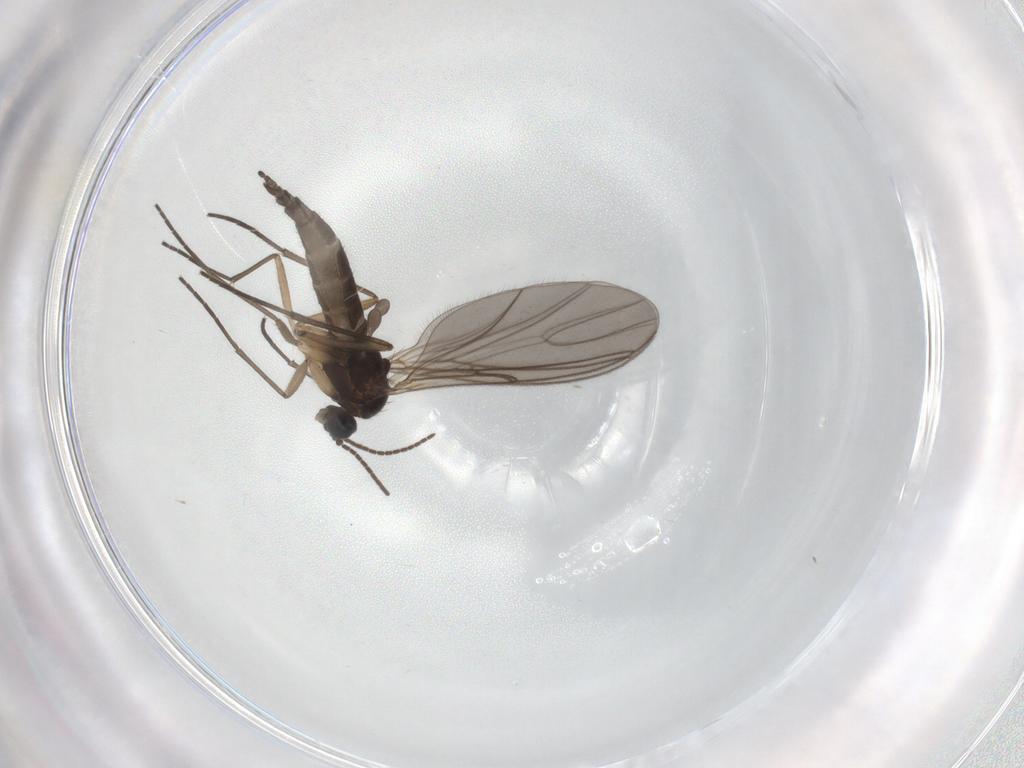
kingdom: Animalia
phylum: Arthropoda
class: Insecta
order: Diptera
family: Sciaridae
